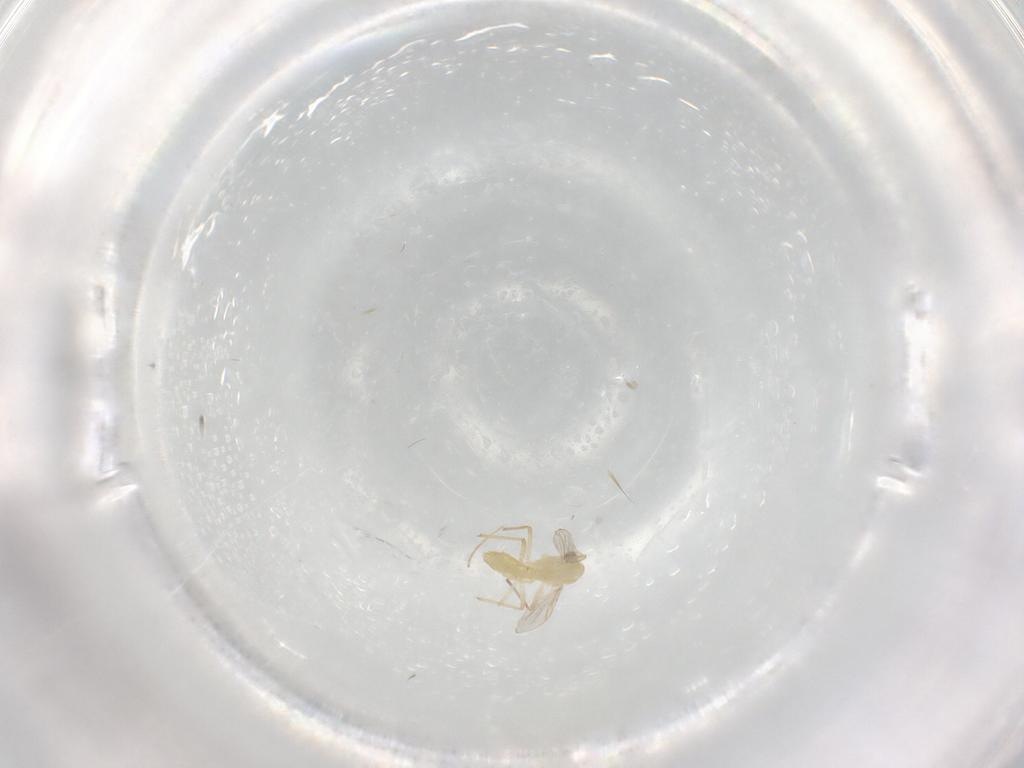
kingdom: Animalia
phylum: Arthropoda
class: Insecta
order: Diptera
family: Chironomidae
